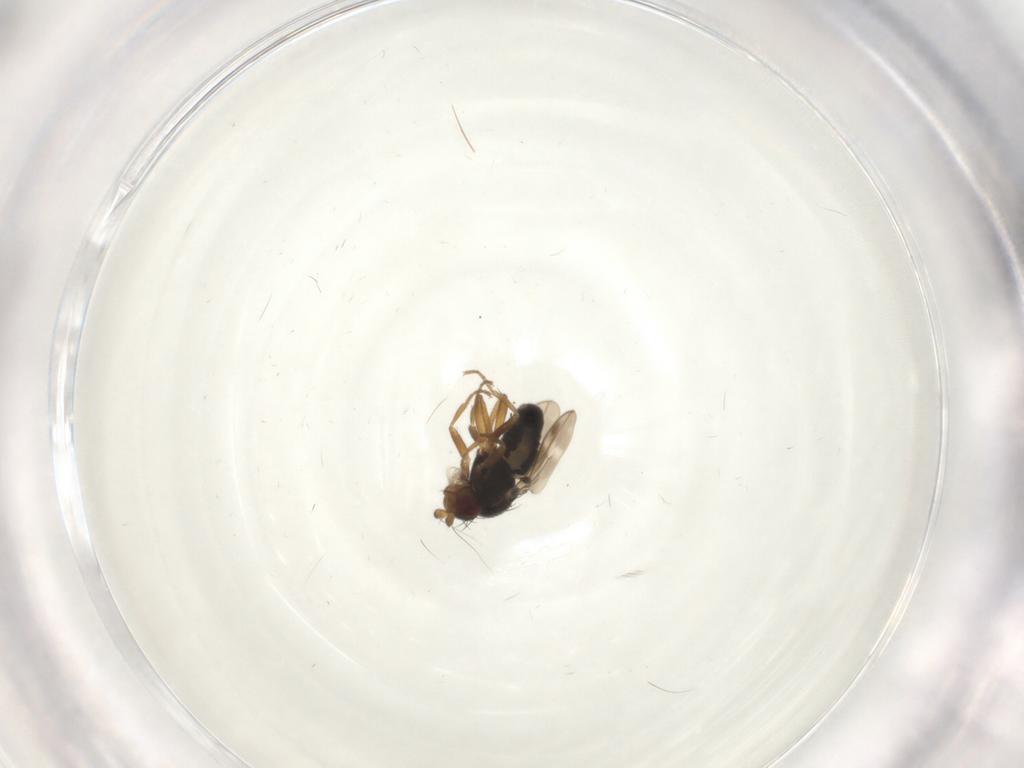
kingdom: Animalia
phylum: Arthropoda
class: Insecta
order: Diptera
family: Sphaeroceridae
